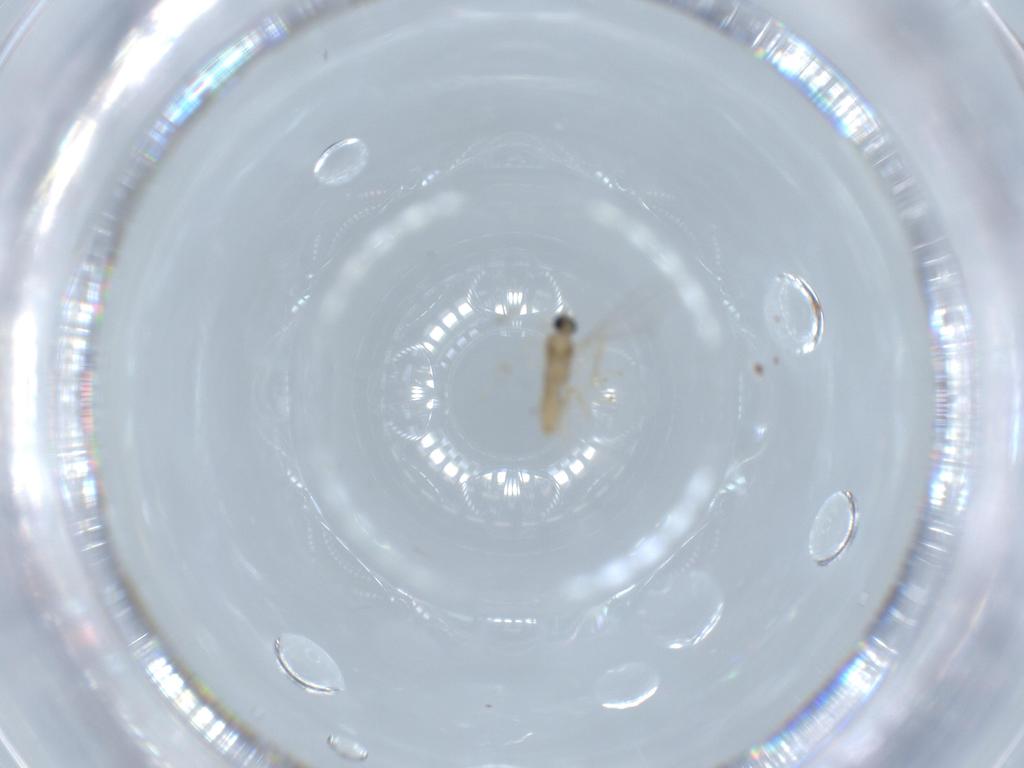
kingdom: Animalia
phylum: Arthropoda
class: Insecta
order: Diptera
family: Cecidomyiidae
